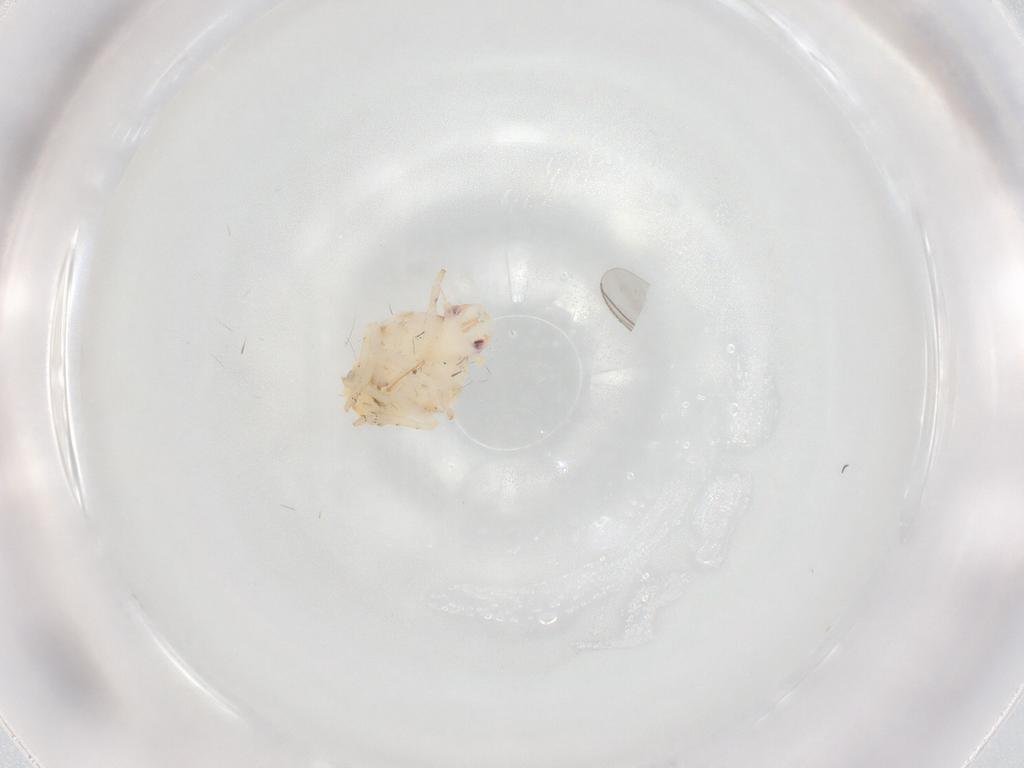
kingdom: Animalia
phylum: Arthropoda
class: Insecta
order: Hemiptera
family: Flatidae
